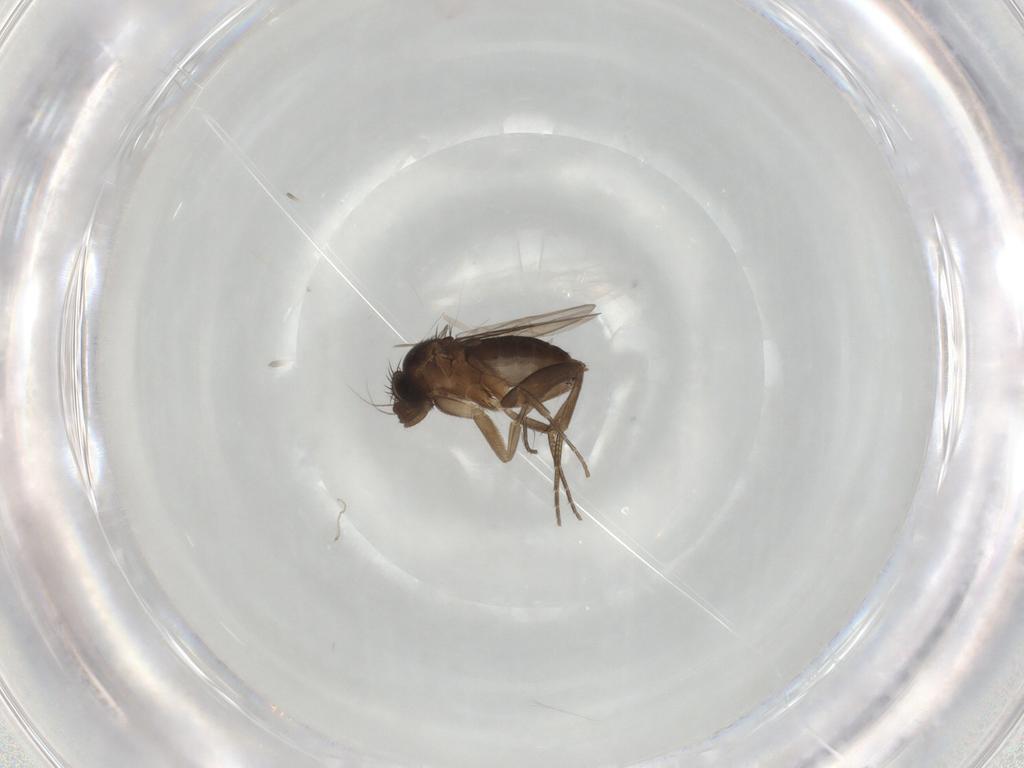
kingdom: Animalia
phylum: Arthropoda
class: Insecta
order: Diptera
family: Phoridae
